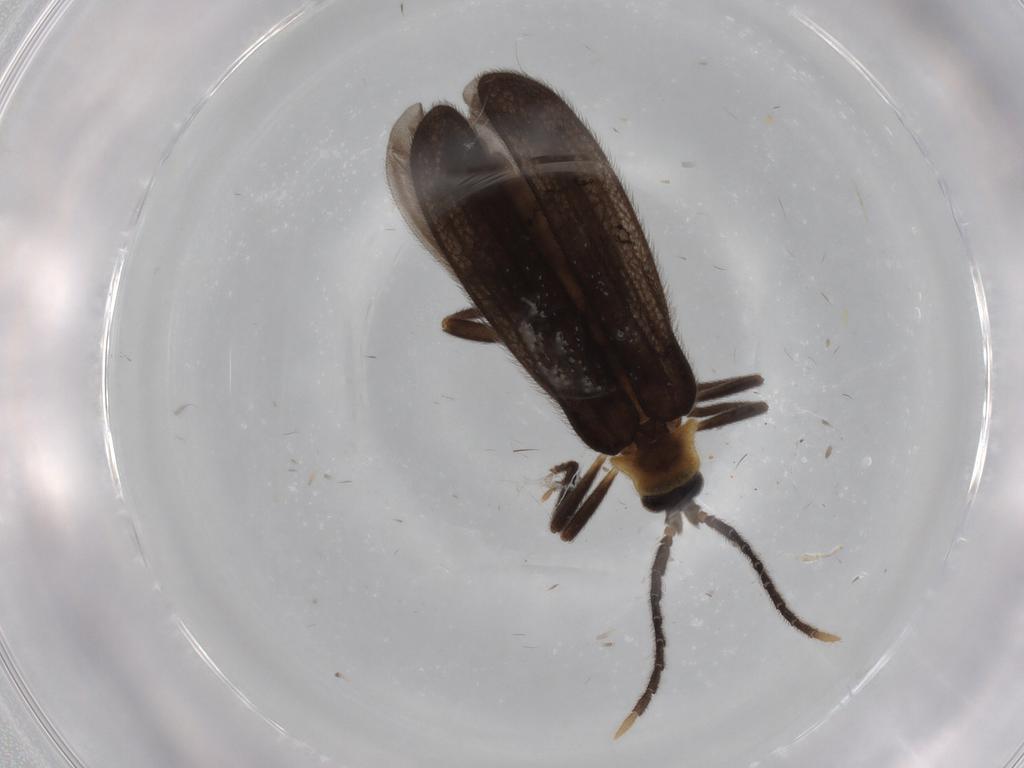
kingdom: Animalia
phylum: Arthropoda
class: Insecta
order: Coleoptera
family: Lycidae
